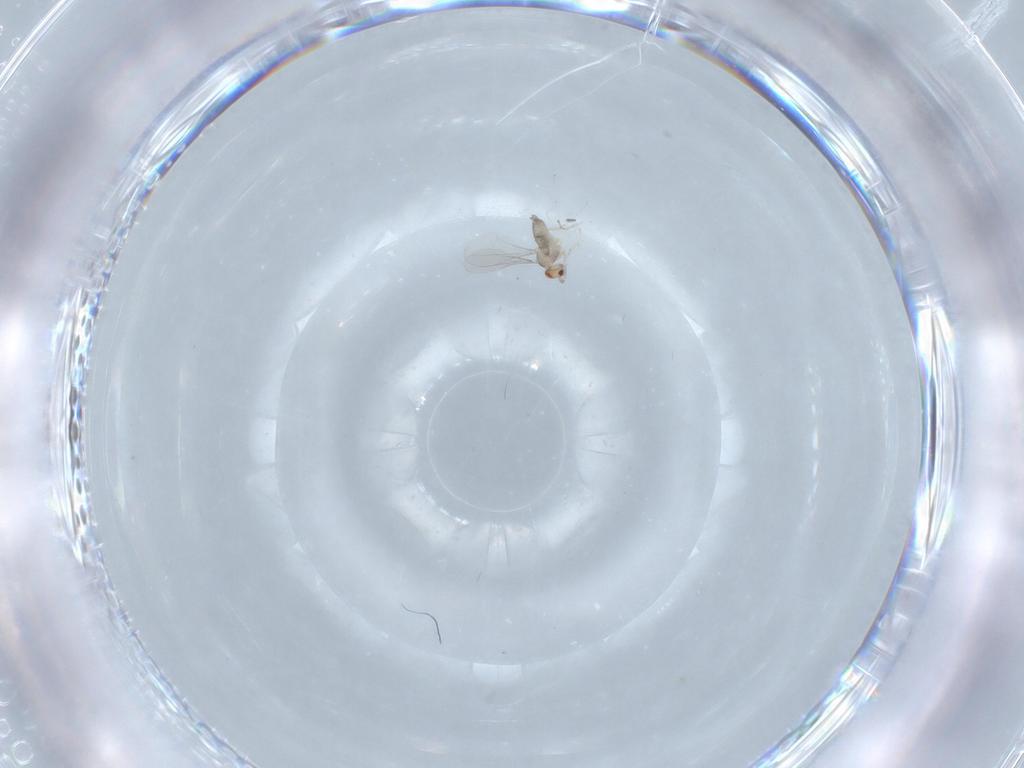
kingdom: Animalia
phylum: Arthropoda
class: Insecta
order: Diptera
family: Cecidomyiidae
